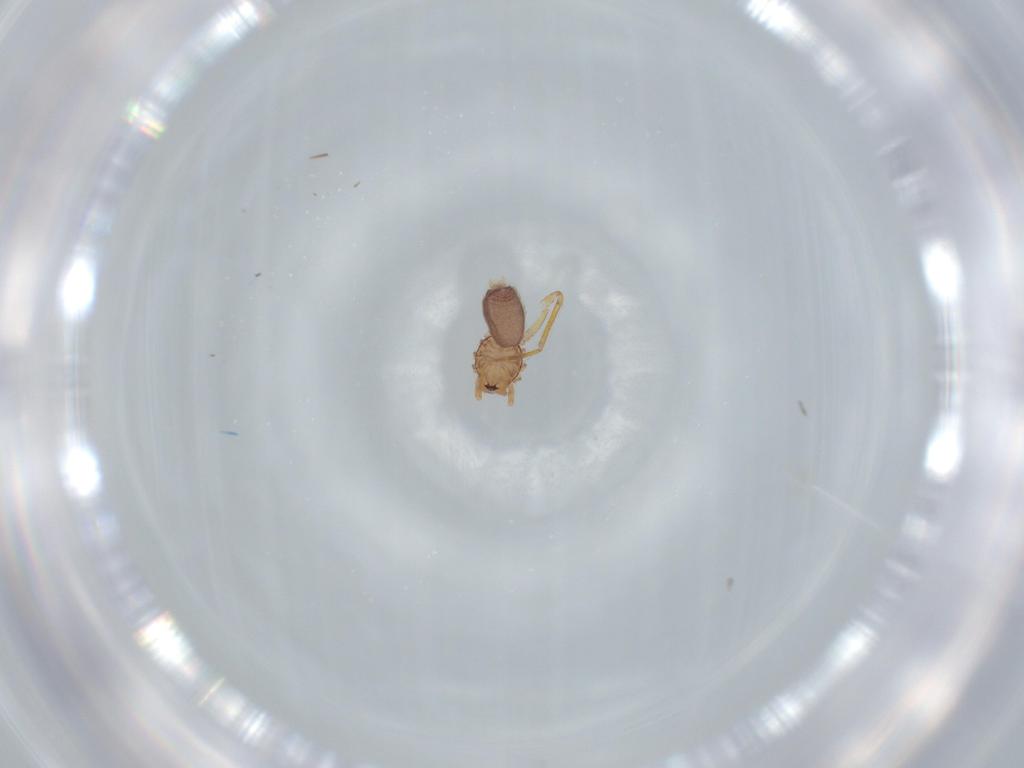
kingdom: Animalia
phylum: Arthropoda
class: Arachnida
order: Araneae
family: Ochyroceratidae
